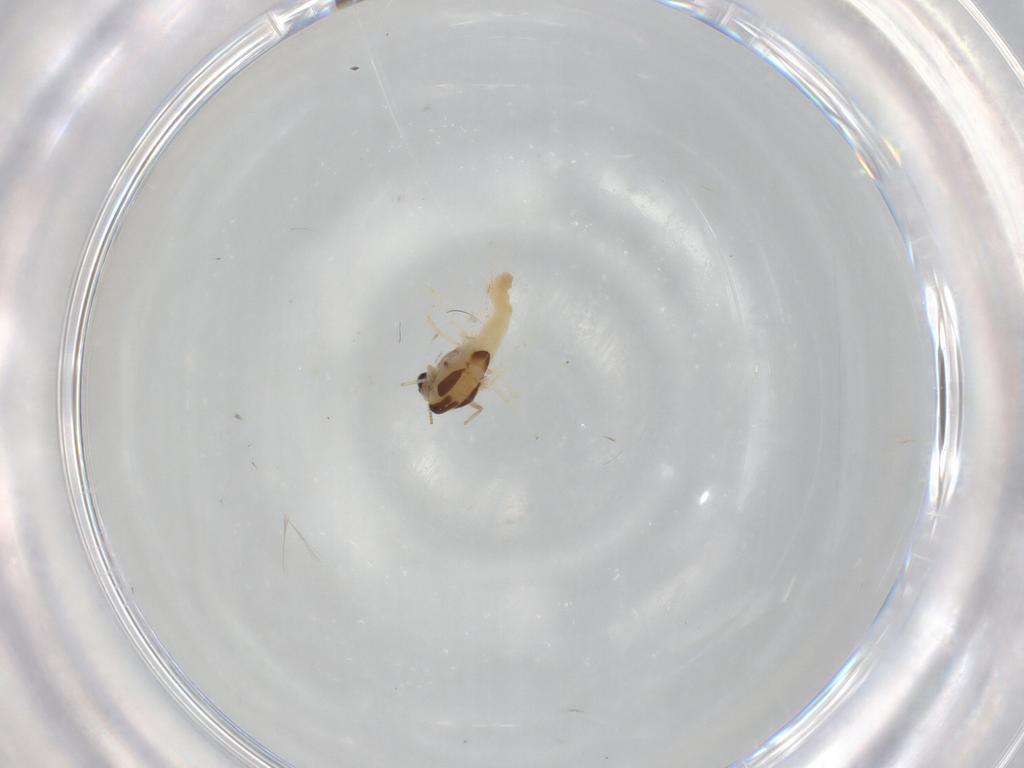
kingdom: Animalia
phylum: Arthropoda
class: Insecta
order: Diptera
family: Chironomidae
